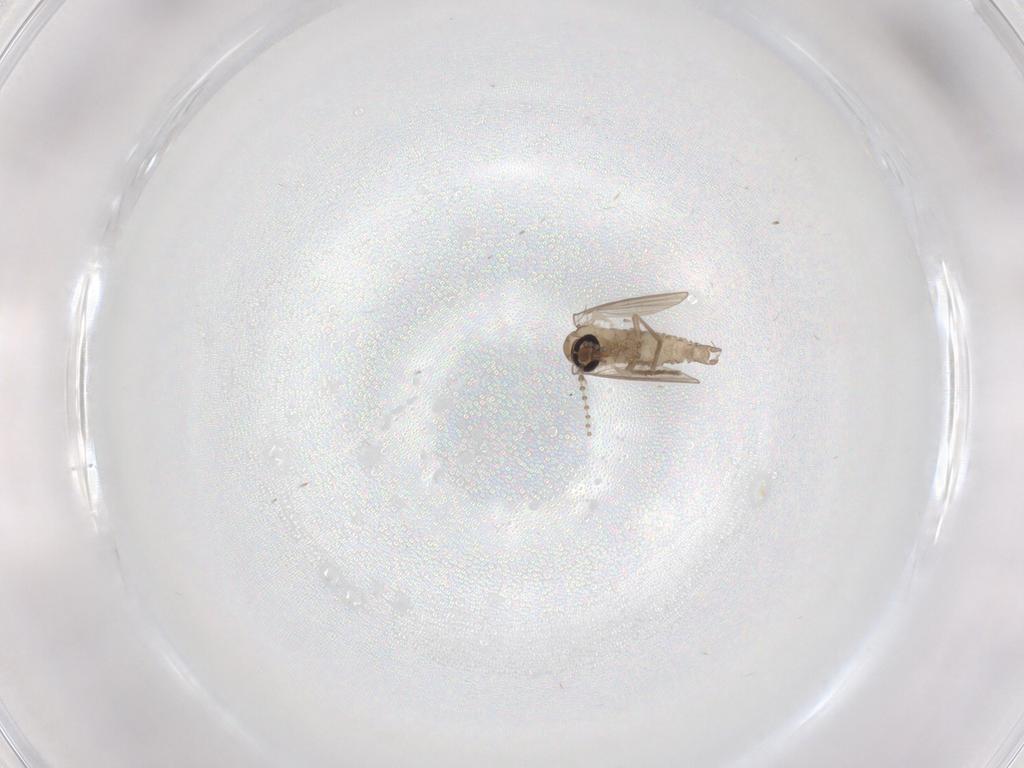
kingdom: Animalia
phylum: Arthropoda
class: Insecta
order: Diptera
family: Psychodidae
